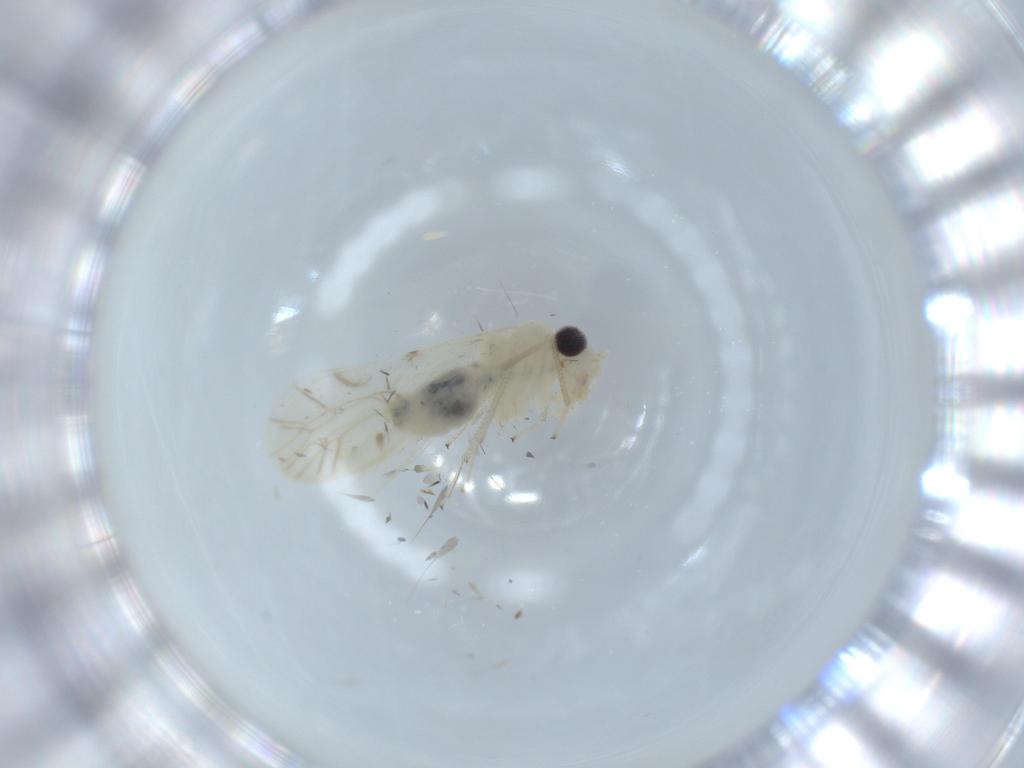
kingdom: Animalia
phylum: Arthropoda
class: Insecta
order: Psocodea
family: Caeciliusidae
